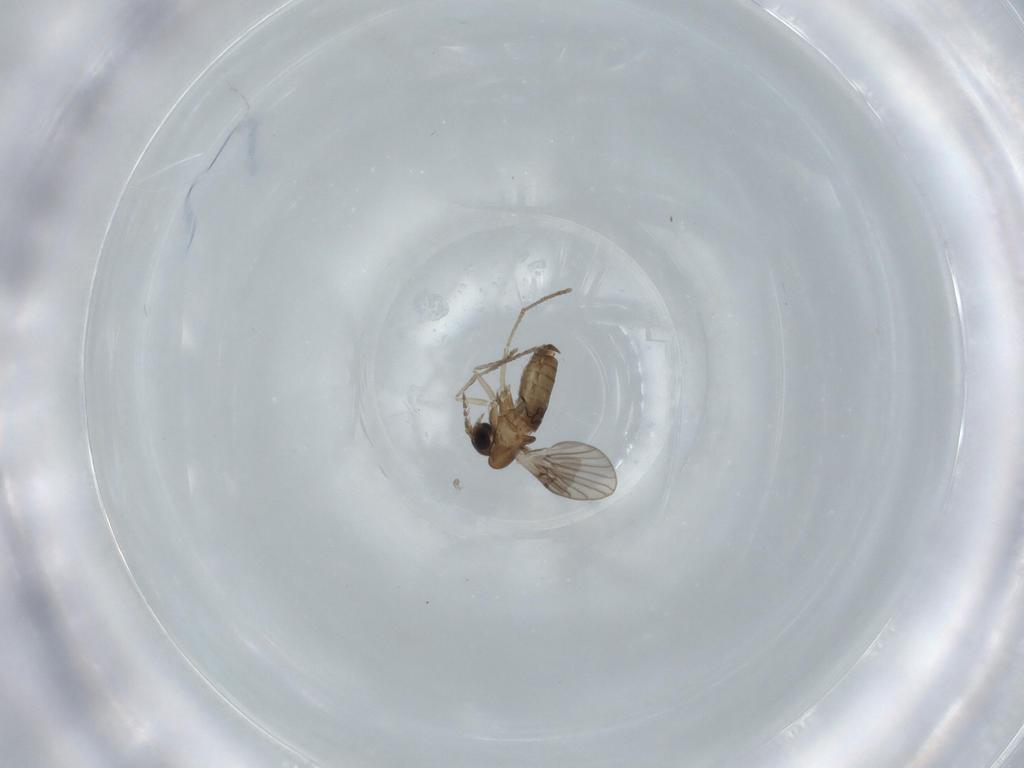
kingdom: Animalia
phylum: Arthropoda
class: Insecta
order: Diptera
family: Psychodidae
